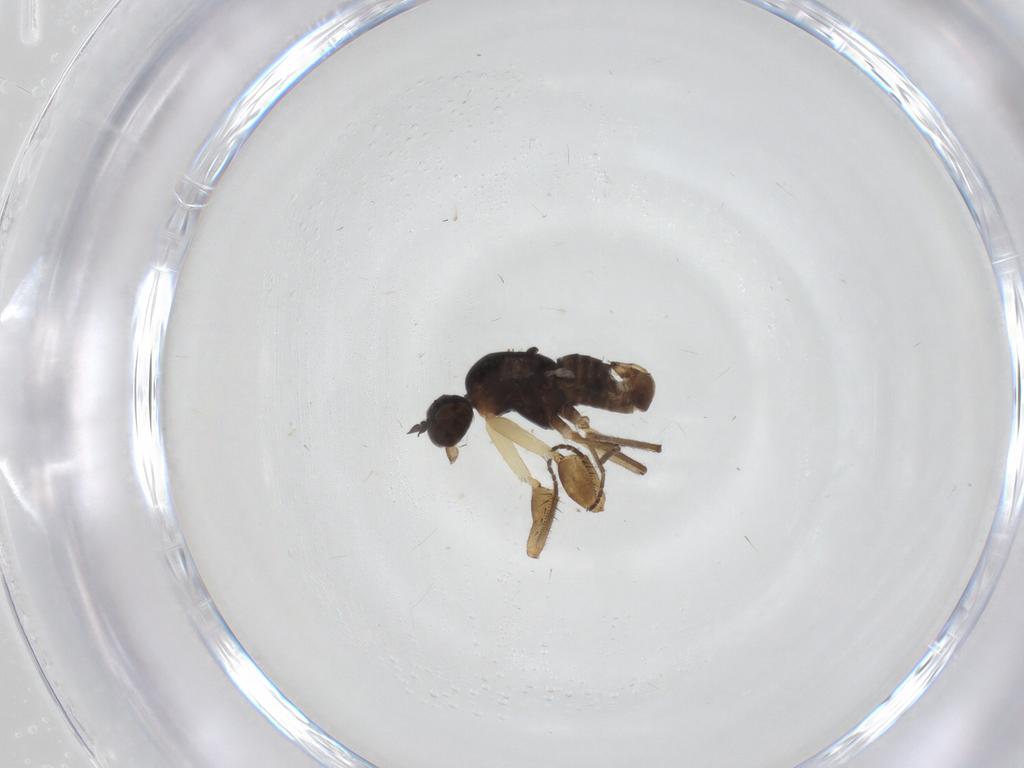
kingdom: Animalia
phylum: Arthropoda
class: Insecta
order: Diptera
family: Empididae
